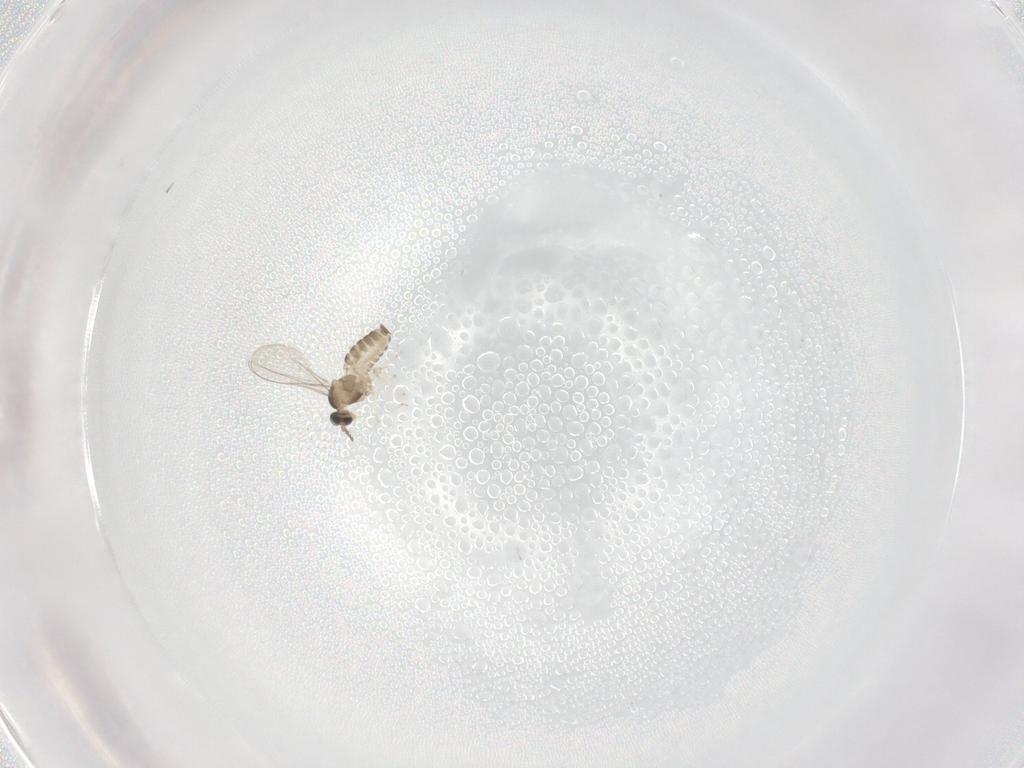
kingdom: Animalia
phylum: Arthropoda
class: Insecta
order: Diptera
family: Cecidomyiidae
